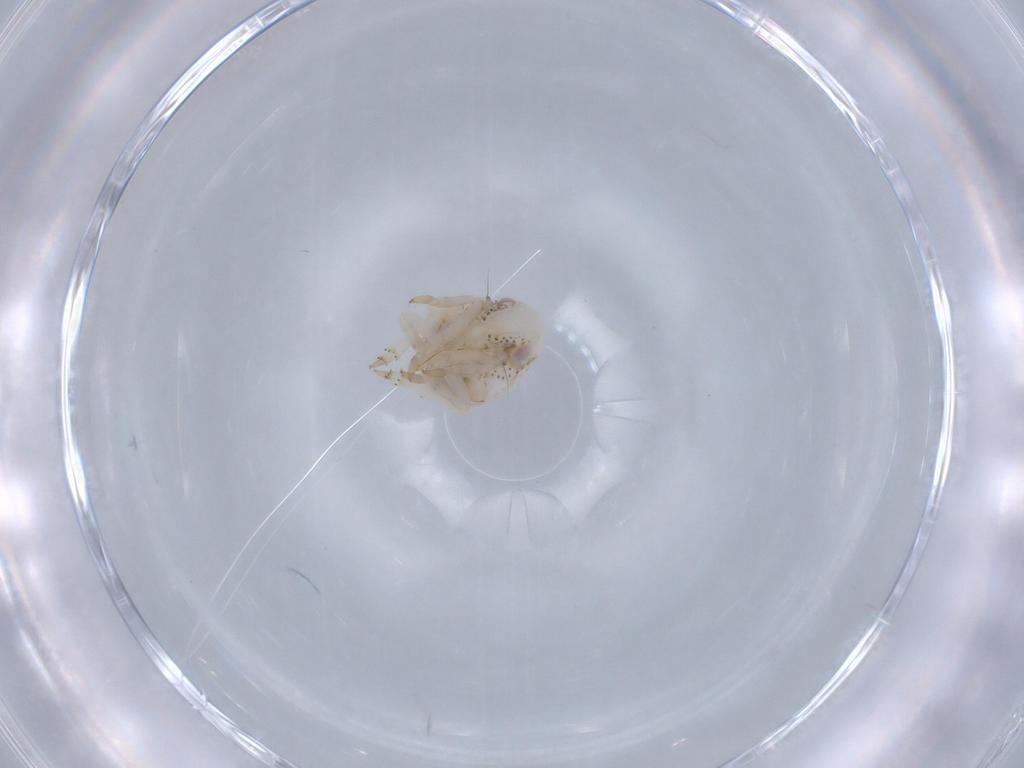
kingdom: Animalia
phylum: Arthropoda
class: Insecta
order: Hemiptera
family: Acanaloniidae
